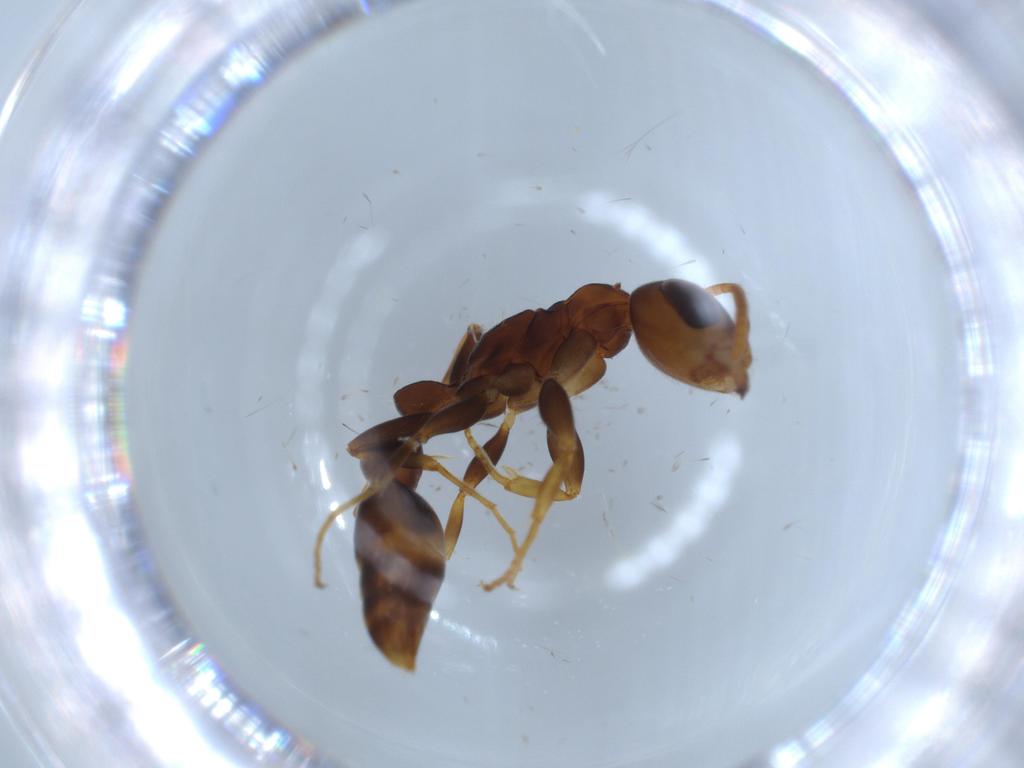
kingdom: Animalia
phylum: Arthropoda
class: Insecta
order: Hymenoptera
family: Formicidae
